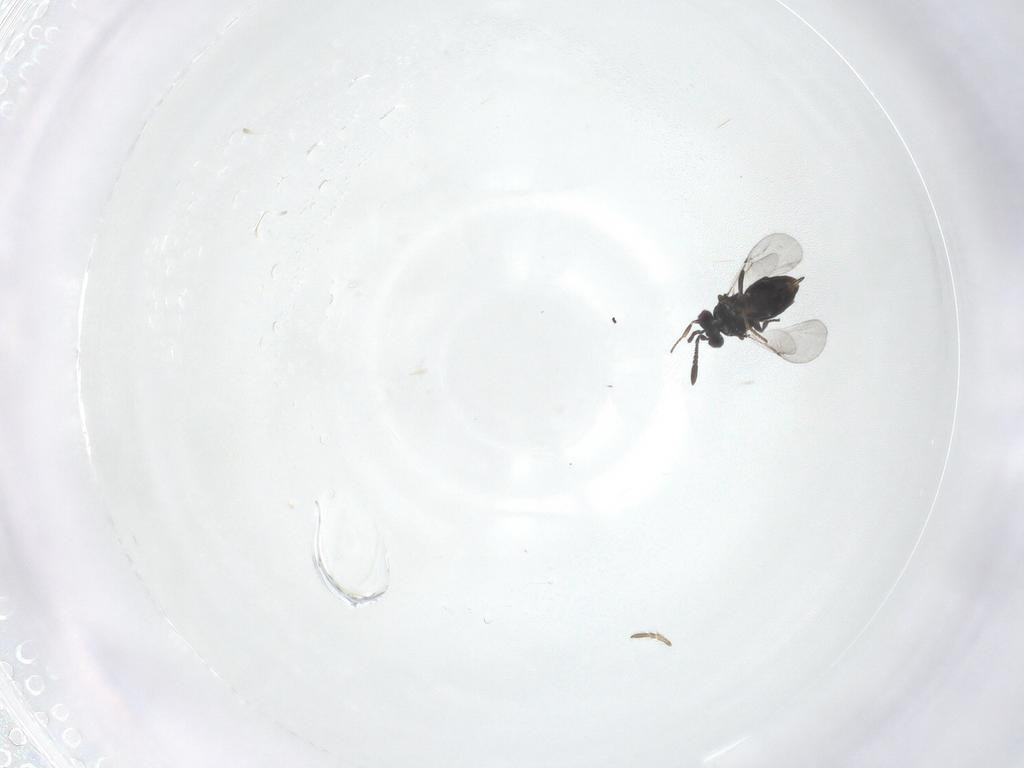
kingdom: Animalia
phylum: Arthropoda
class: Insecta
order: Hymenoptera
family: Encyrtidae
